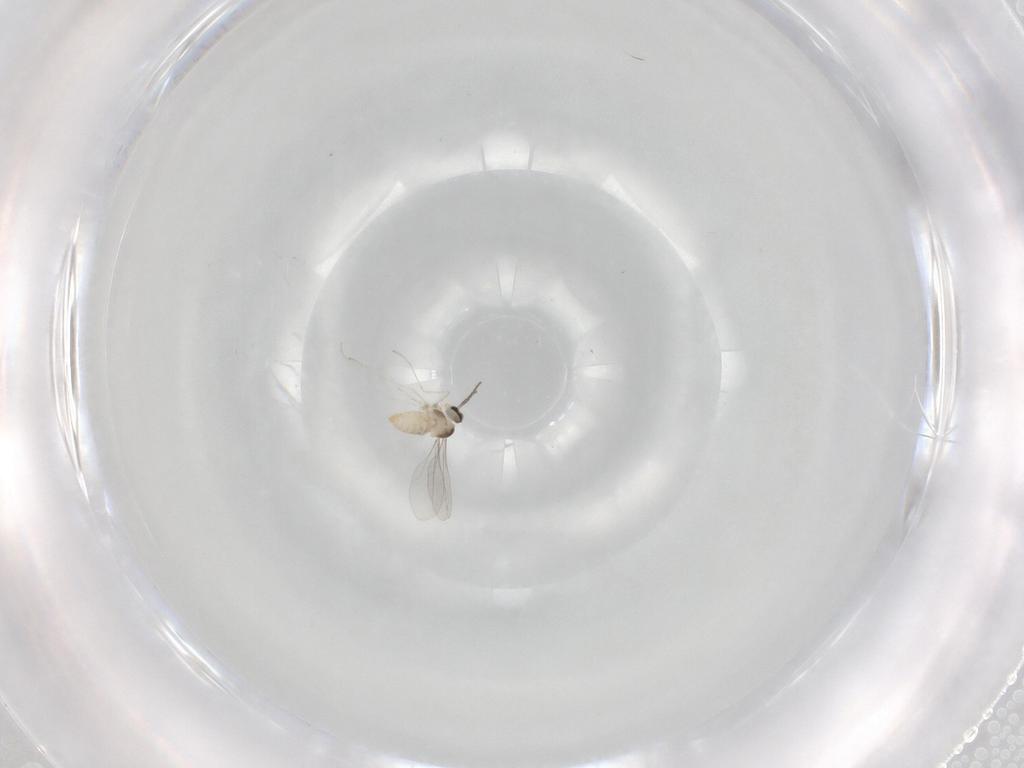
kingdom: Animalia
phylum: Arthropoda
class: Insecta
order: Diptera
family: Cecidomyiidae
